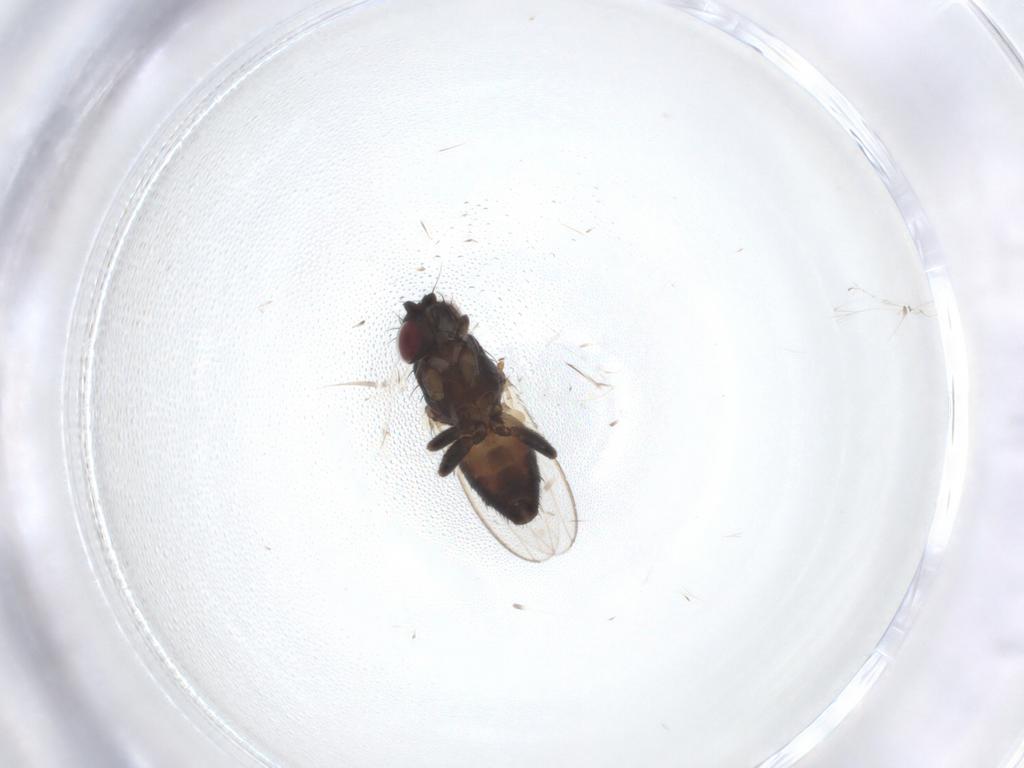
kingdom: Animalia
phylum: Arthropoda
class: Insecta
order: Diptera
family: Milichiidae
